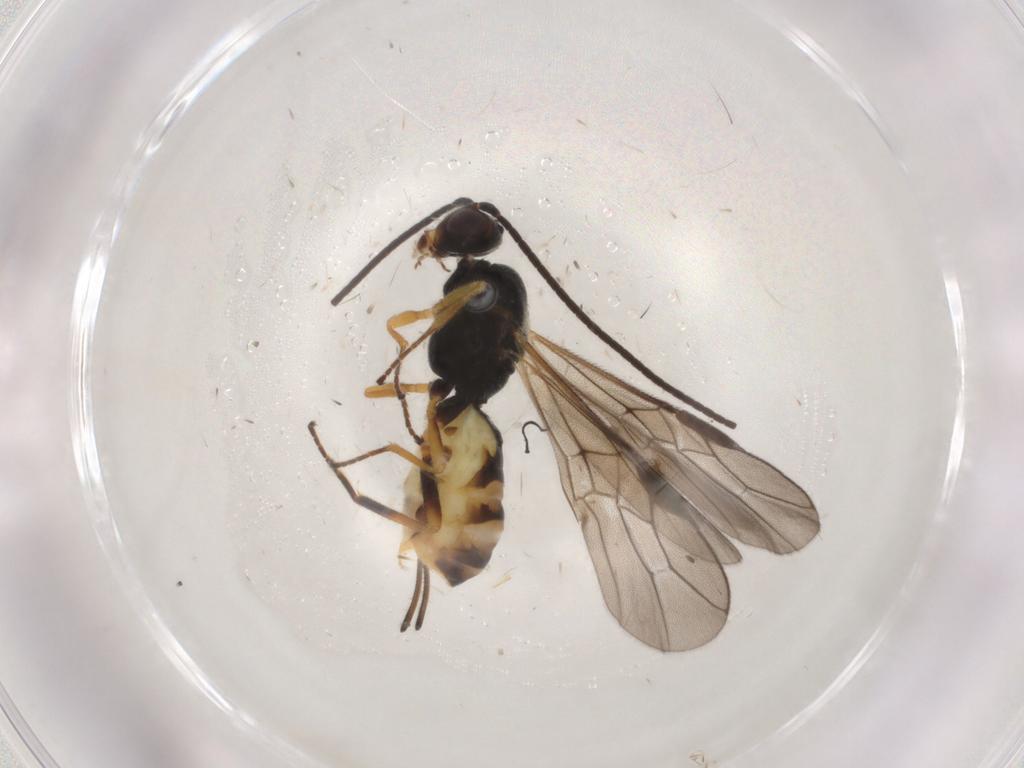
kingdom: Animalia
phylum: Arthropoda
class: Insecta
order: Hymenoptera
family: Braconidae
